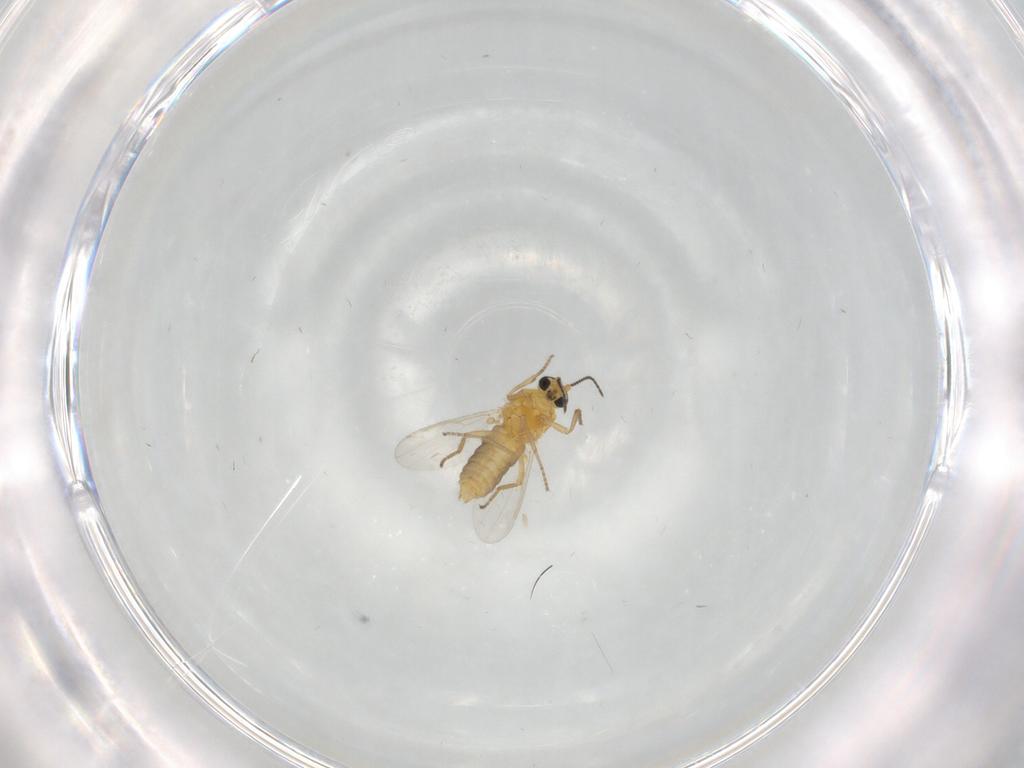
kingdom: Animalia
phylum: Arthropoda
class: Insecta
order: Diptera
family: Ceratopogonidae
